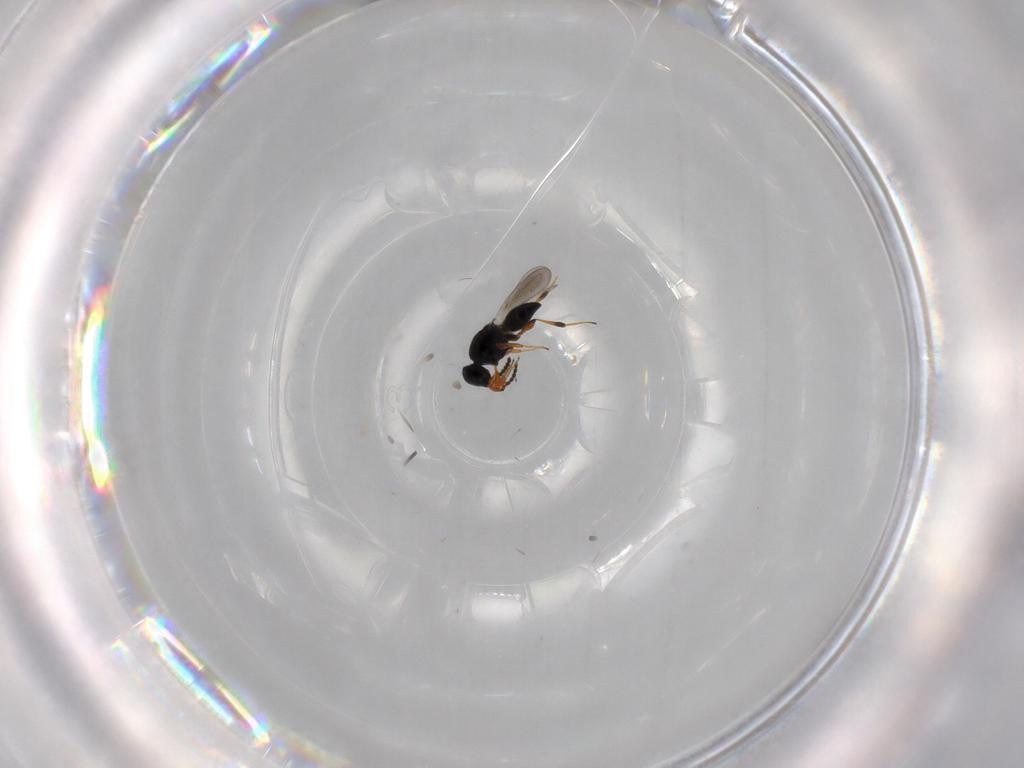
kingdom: Animalia
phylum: Arthropoda
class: Insecta
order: Hymenoptera
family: Platygastridae
